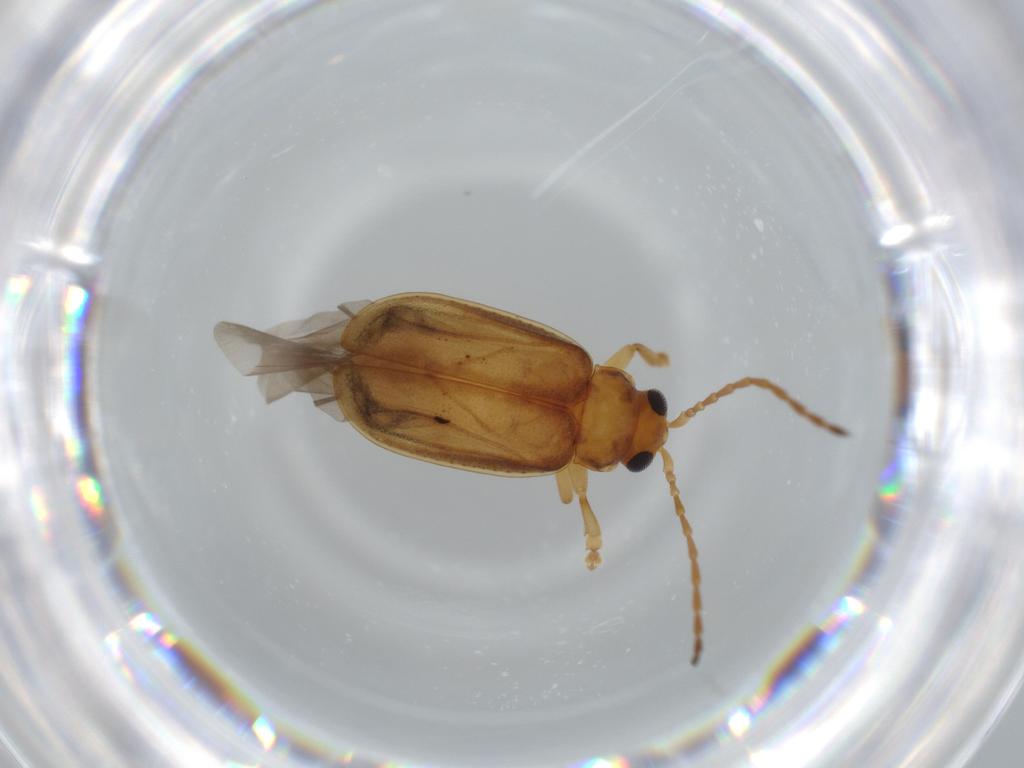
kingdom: Animalia
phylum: Arthropoda
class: Insecta
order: Coleoptera
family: Chrysomelidae
